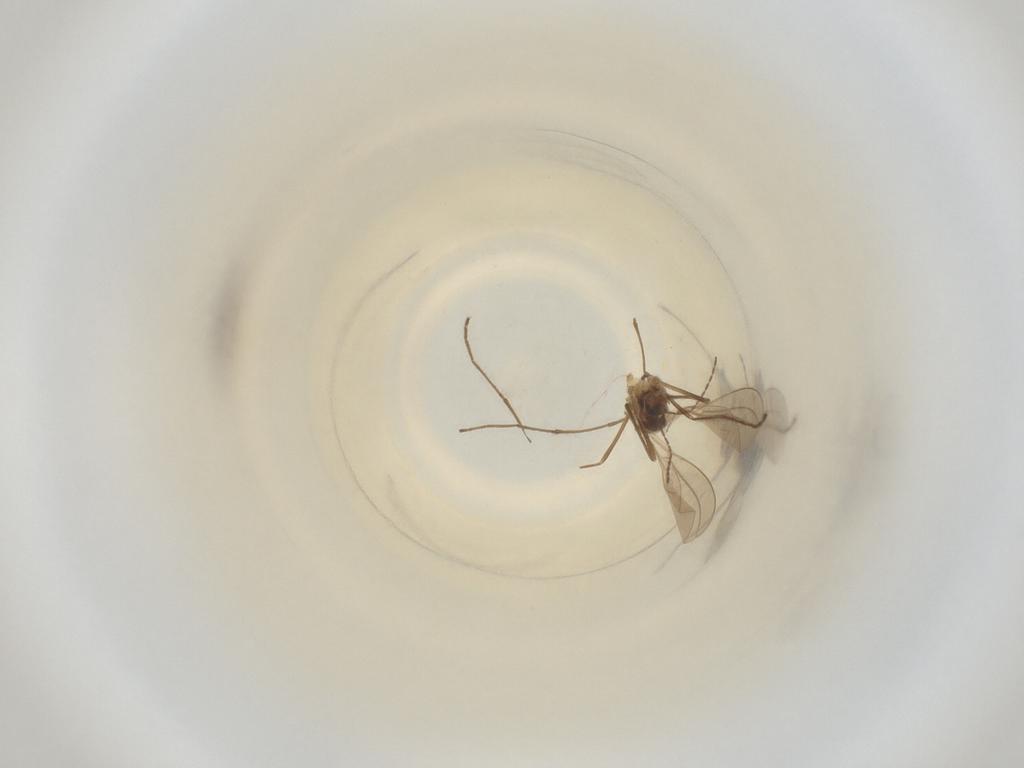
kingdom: Animalia
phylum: Arthropoda
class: Insecta
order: Diptera
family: Cecidomyiidae
